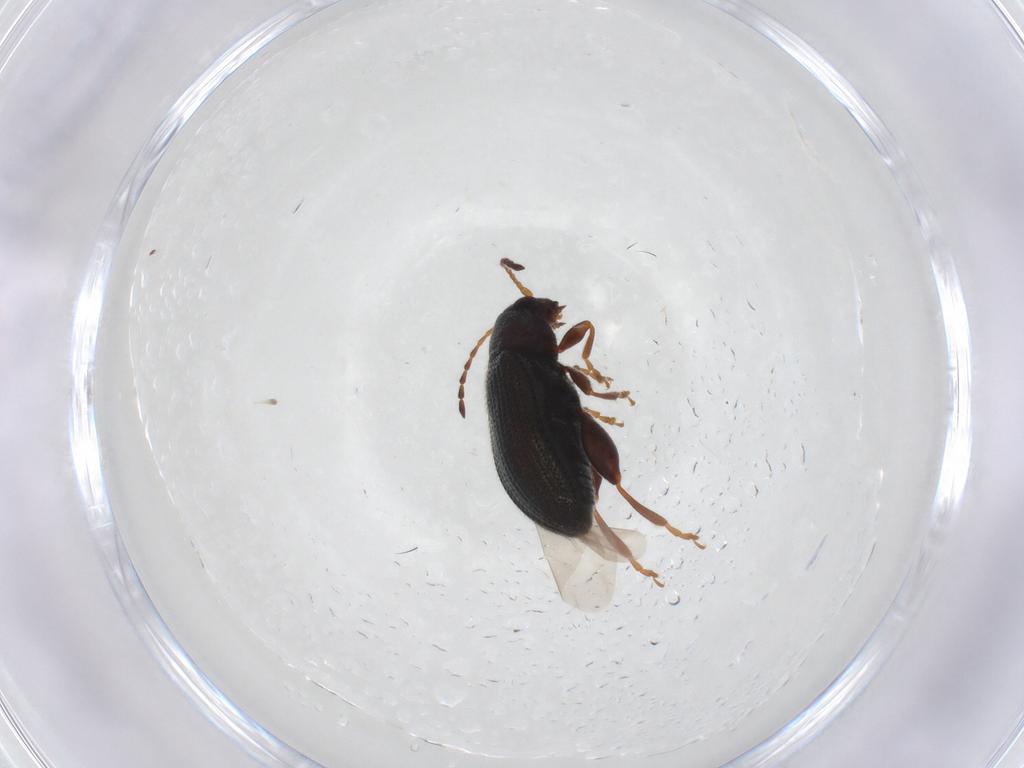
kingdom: Animalia
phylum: Arthropoda
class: Insecta
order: Coleoptera
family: Chrysomelidae
